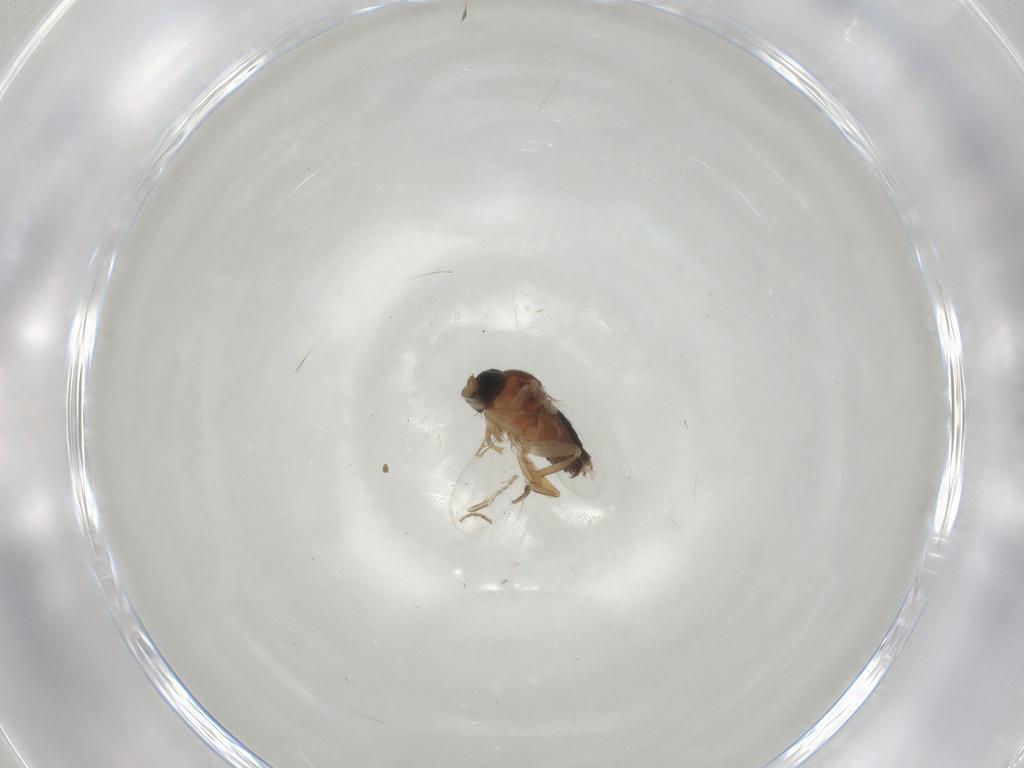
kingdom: Animalia
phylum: Arthropoda
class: Insecta
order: Diptera
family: Phoridae
